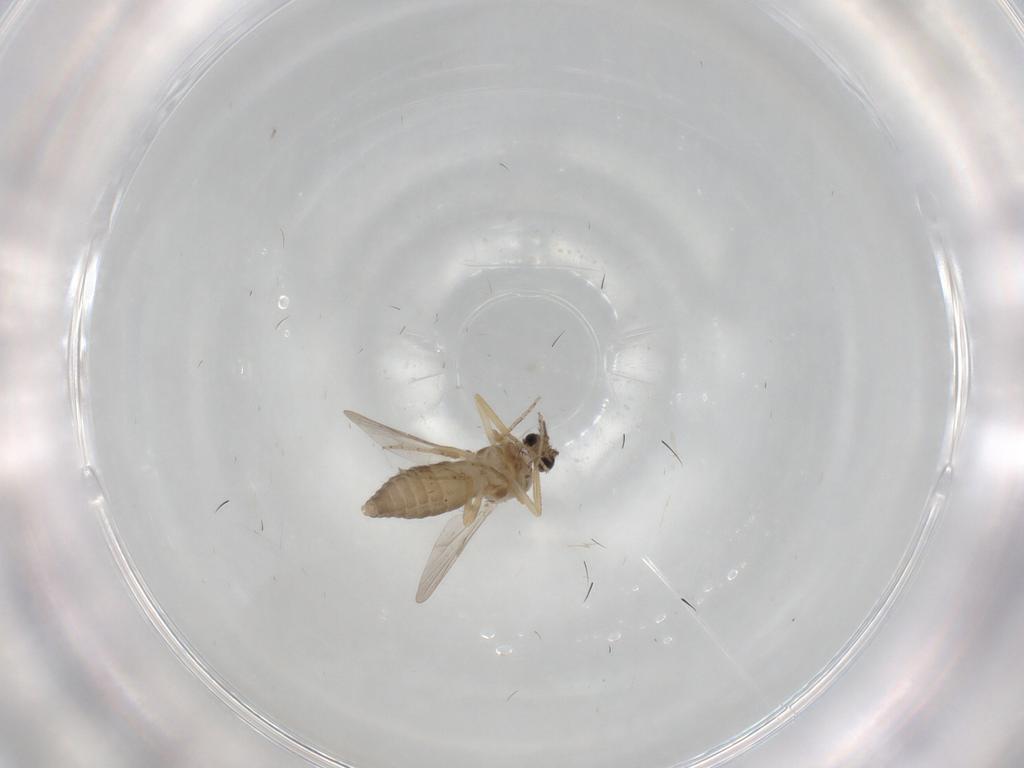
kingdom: Animalia
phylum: Arthropoda
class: Insecta
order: Diptera
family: Ceratopogonidae
